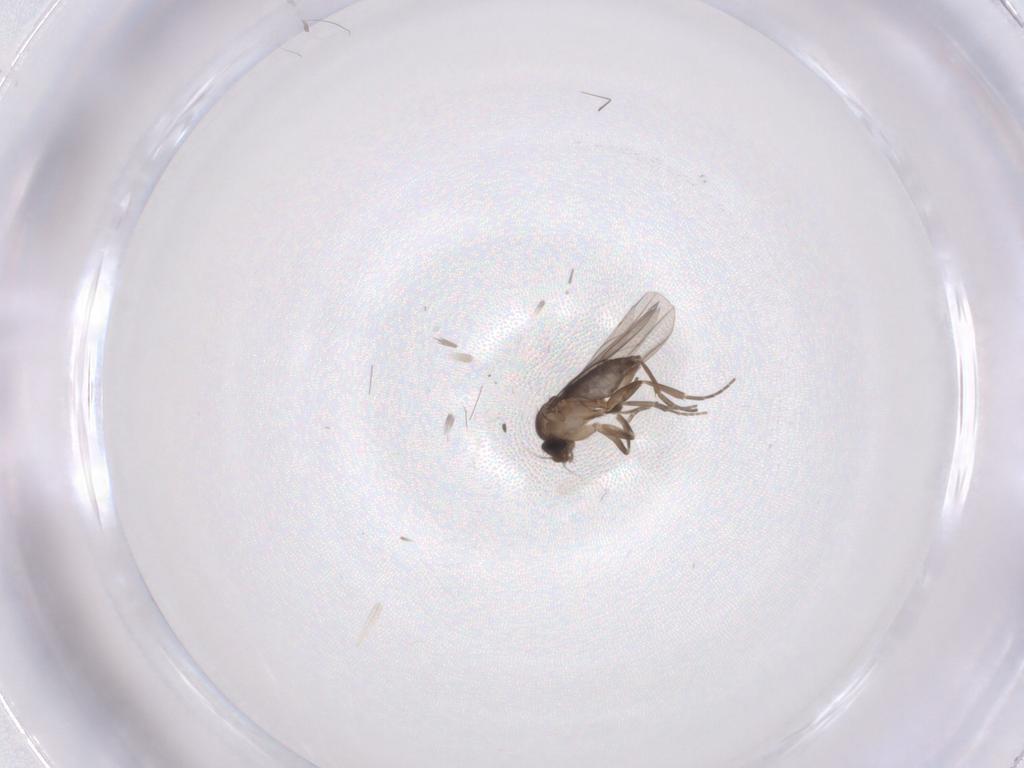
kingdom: Animalia
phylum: Arthropoda
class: Insecta
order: Diptera
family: Phoridae
